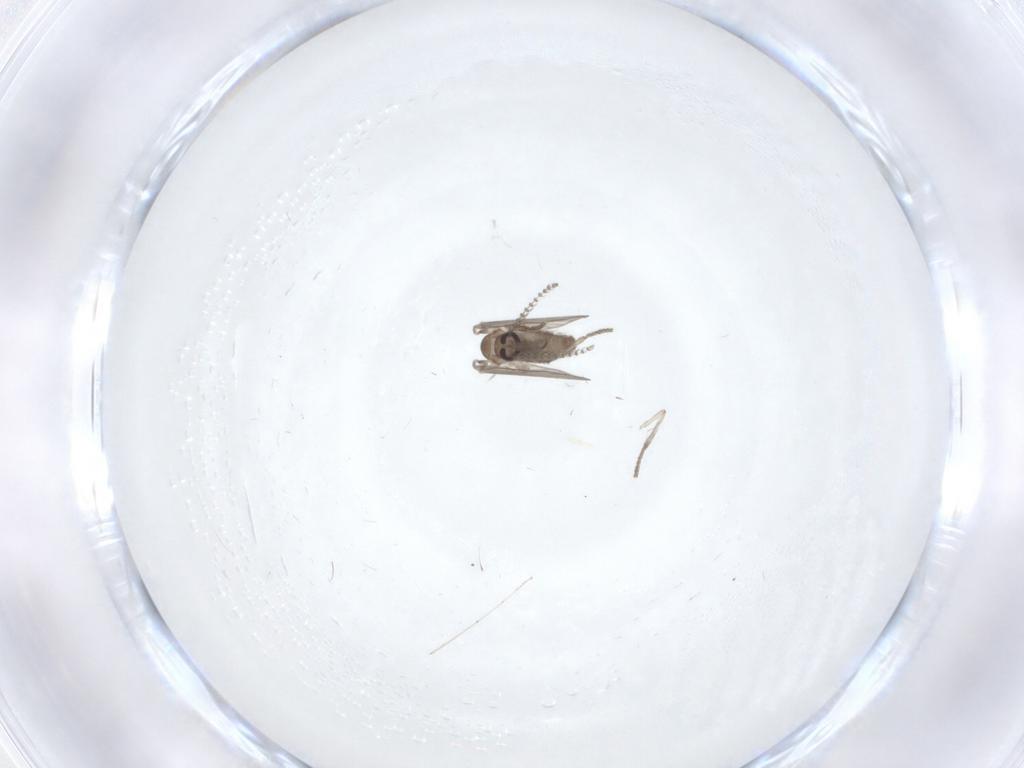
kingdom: Animalia
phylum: Arthropoda
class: Insecta
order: Diptera
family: Psychodidae
